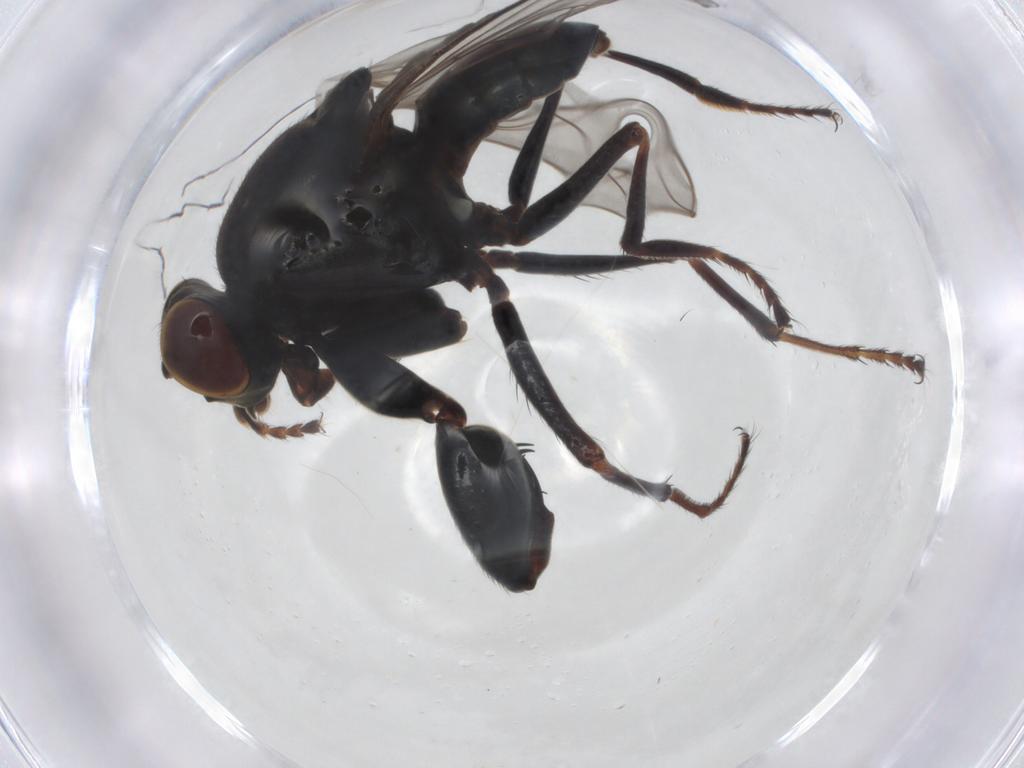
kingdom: Animalia
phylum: Arthropoda
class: Insecta
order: Diptera
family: Ephydridae
